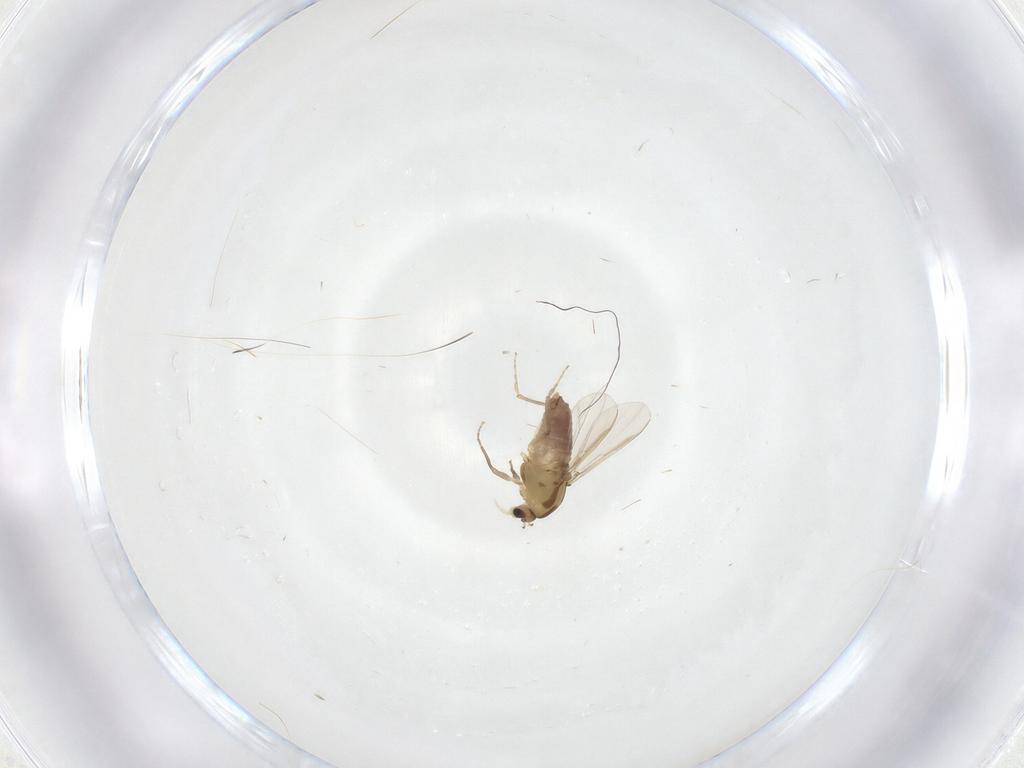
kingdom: Animalia
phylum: Arthropoda
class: Insecta
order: Diptera
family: Chironomidae
